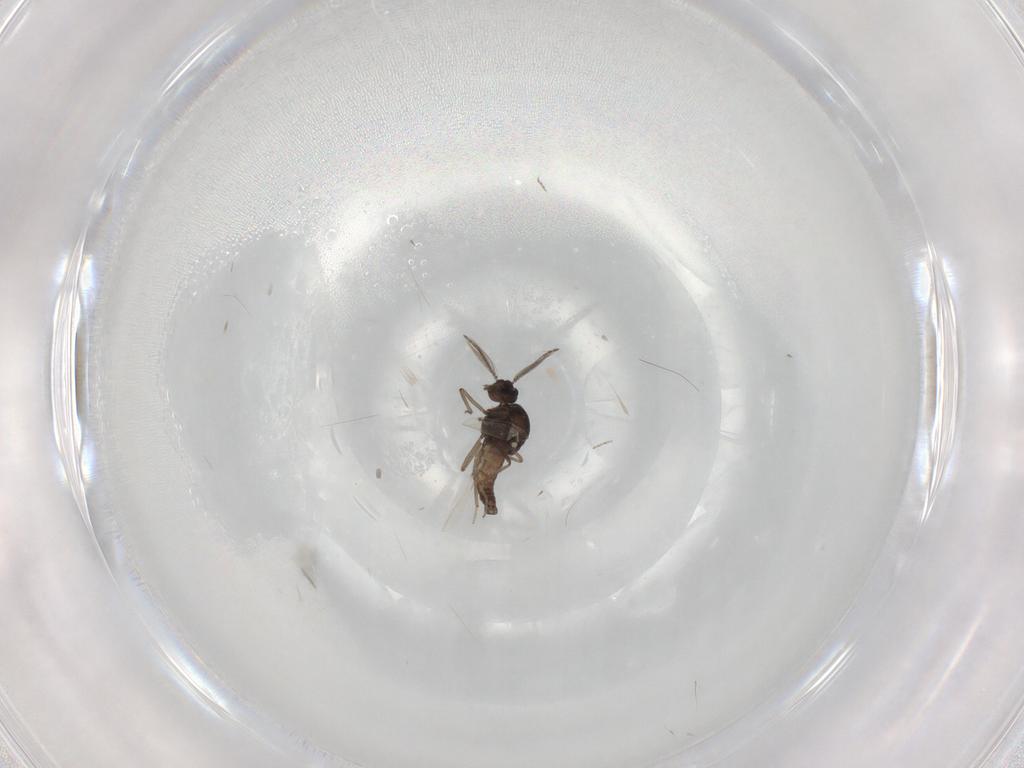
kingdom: Animalia
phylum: Arthropoda
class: Insecta
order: Diptera
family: Ceratopogonidae
